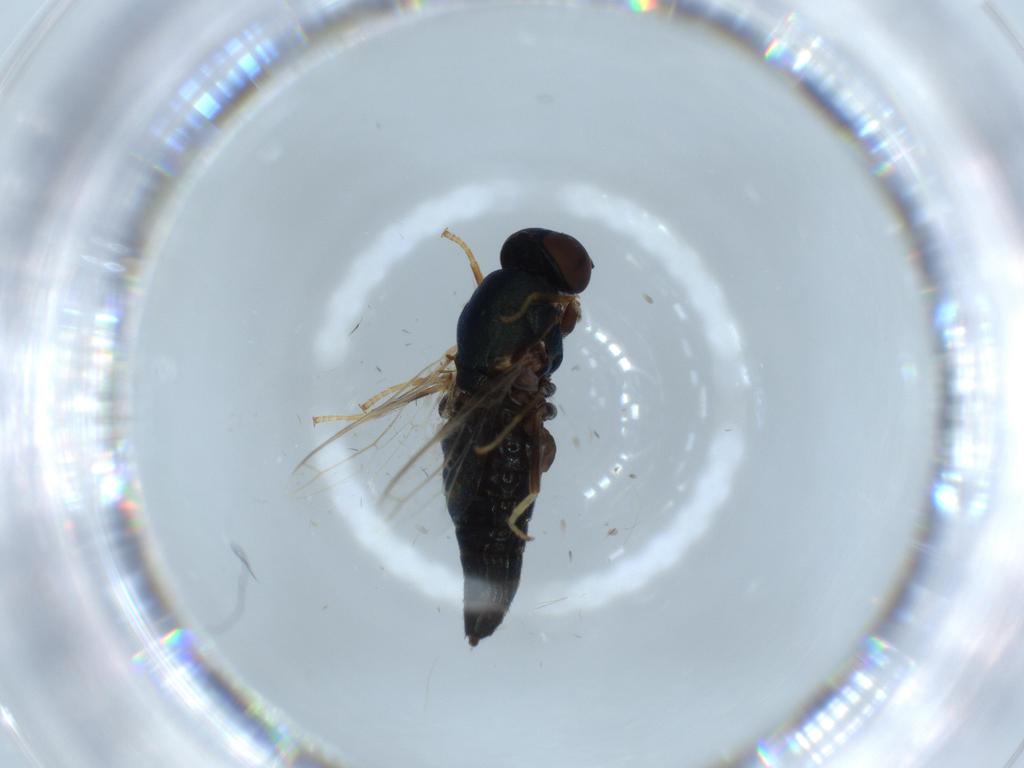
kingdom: Animalia
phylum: Arthropoda
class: Insecta
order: Diptera
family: Scenopinidae
